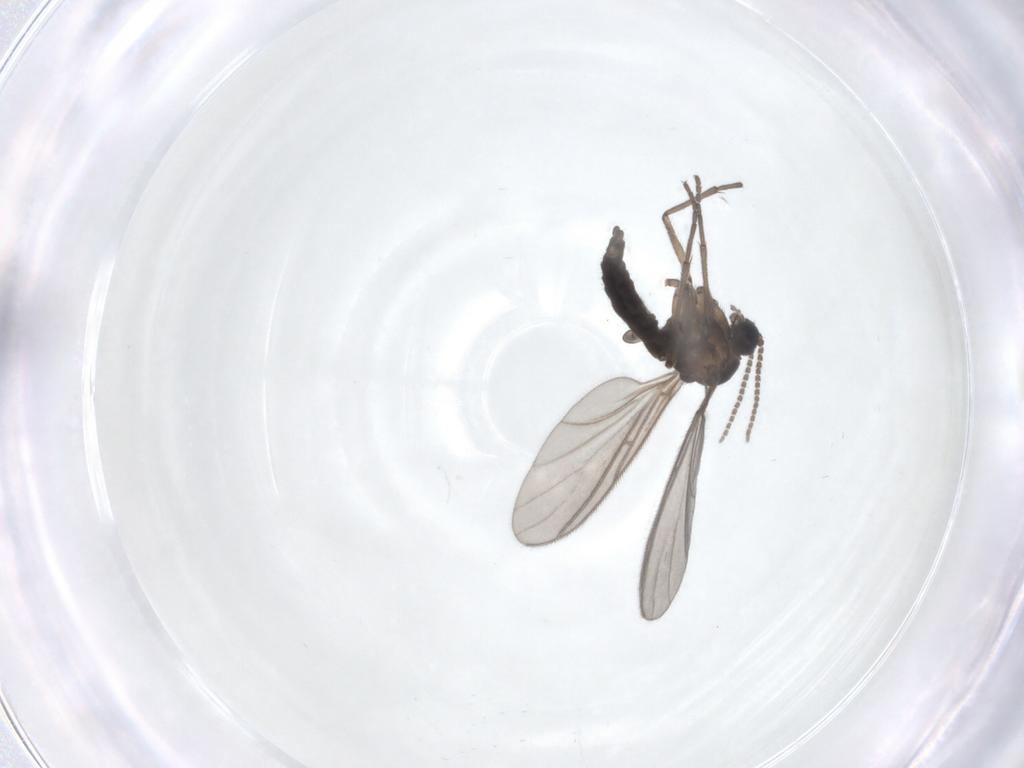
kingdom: Animalia
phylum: Arthropoda
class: Insecta
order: Diptera
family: Sciaridae
